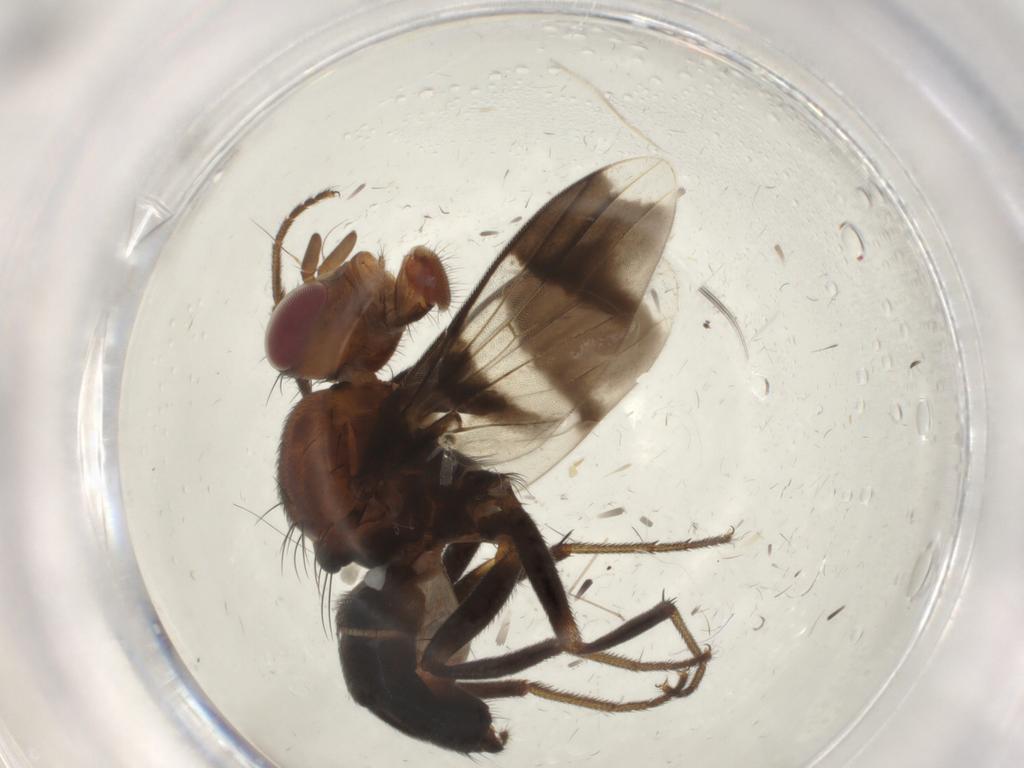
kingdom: Animalia
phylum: Arthropoda
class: Insecta
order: Diptera
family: Richardiidae
